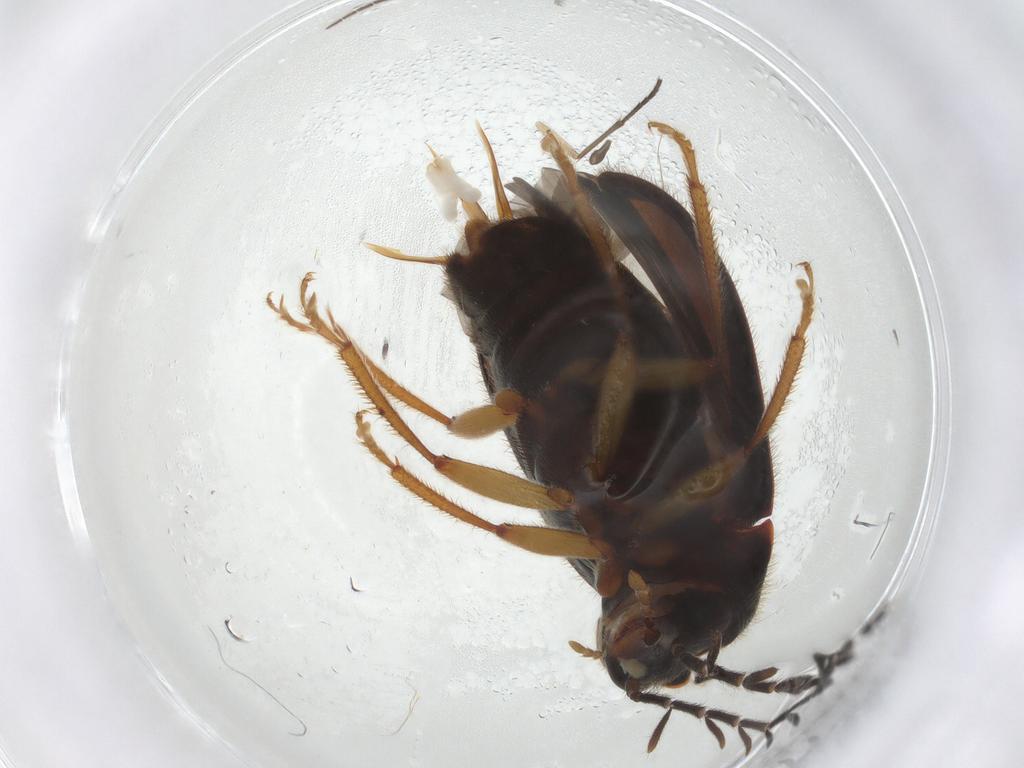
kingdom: Animalia
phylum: Arthropoda
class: Insecta
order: Coleoptera
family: Ptilodactylidae
